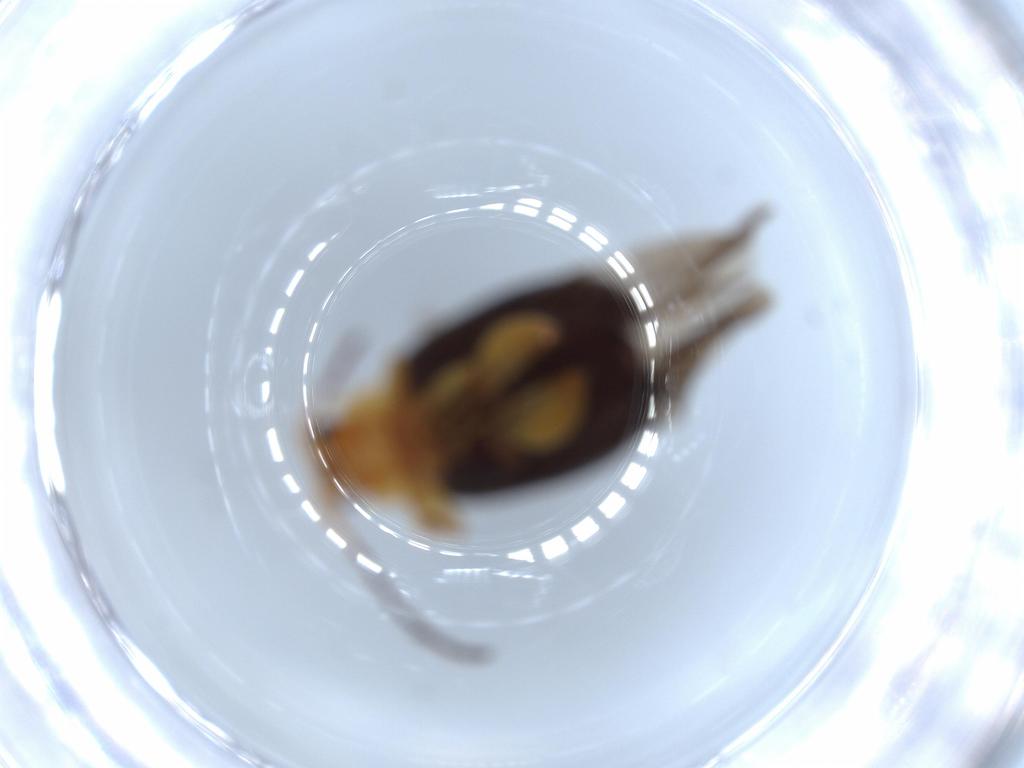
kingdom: Animalia
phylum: Arthropoda
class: Insecta
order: Coleoptera
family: Chrysomelidae
